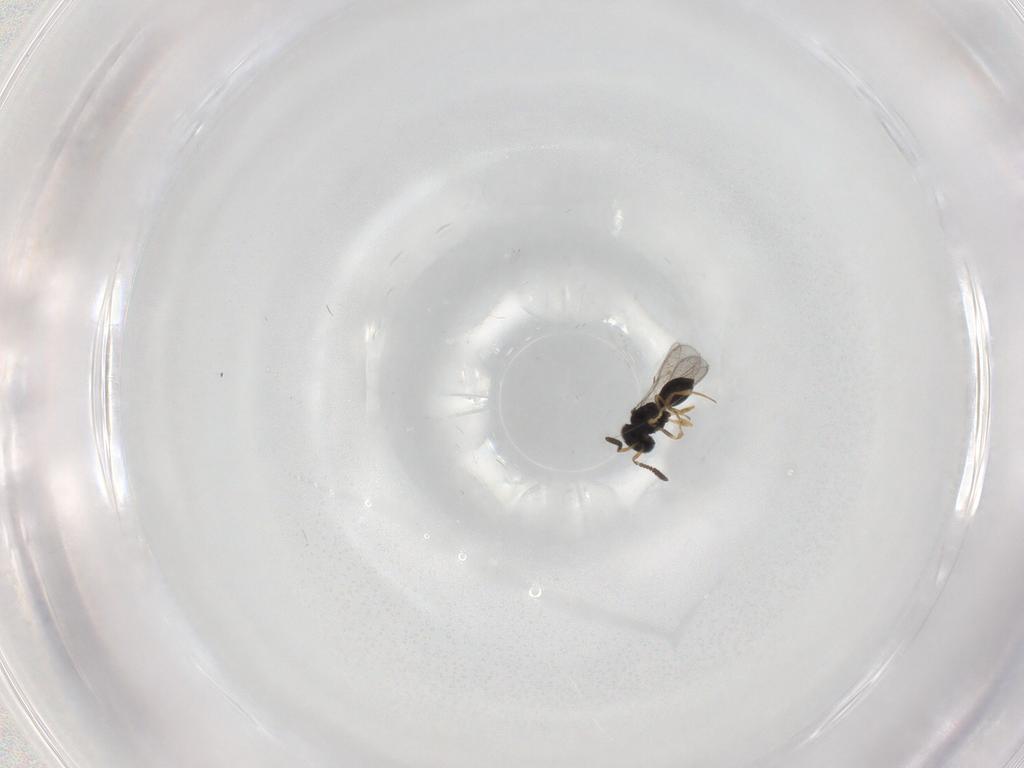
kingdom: Animalia
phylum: Arthropoda
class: Insecta
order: Hymenoptera
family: Scelionidae
